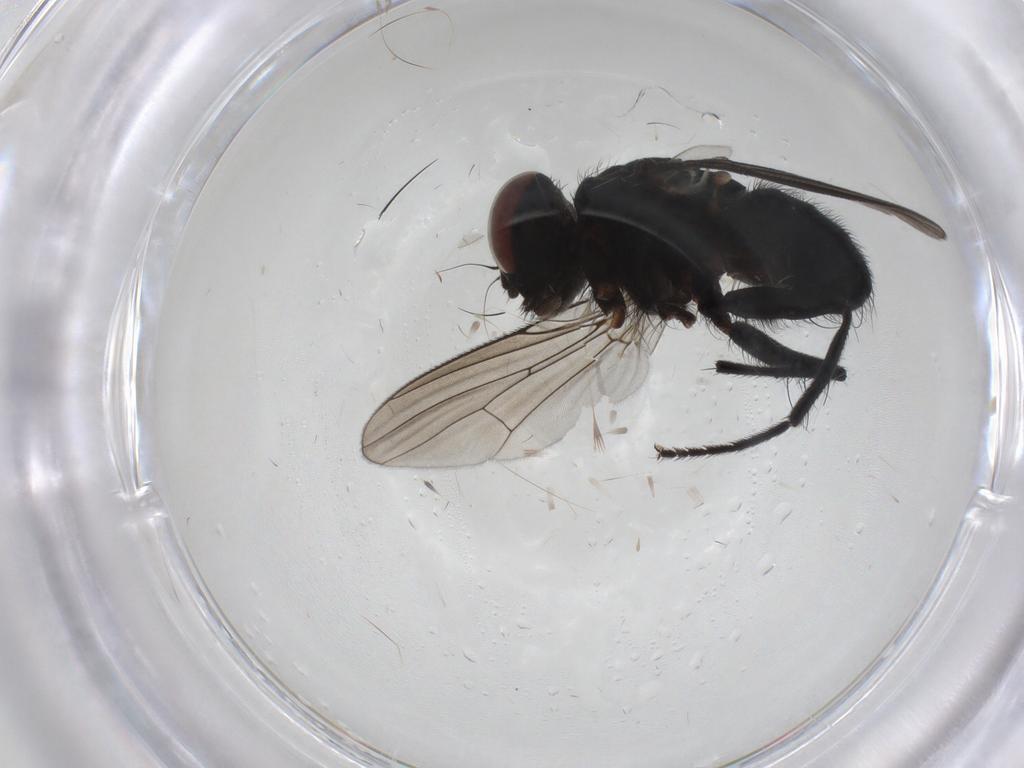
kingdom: Animalia
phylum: Arthropoda
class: Insecta
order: Diptera
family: Muscidae
